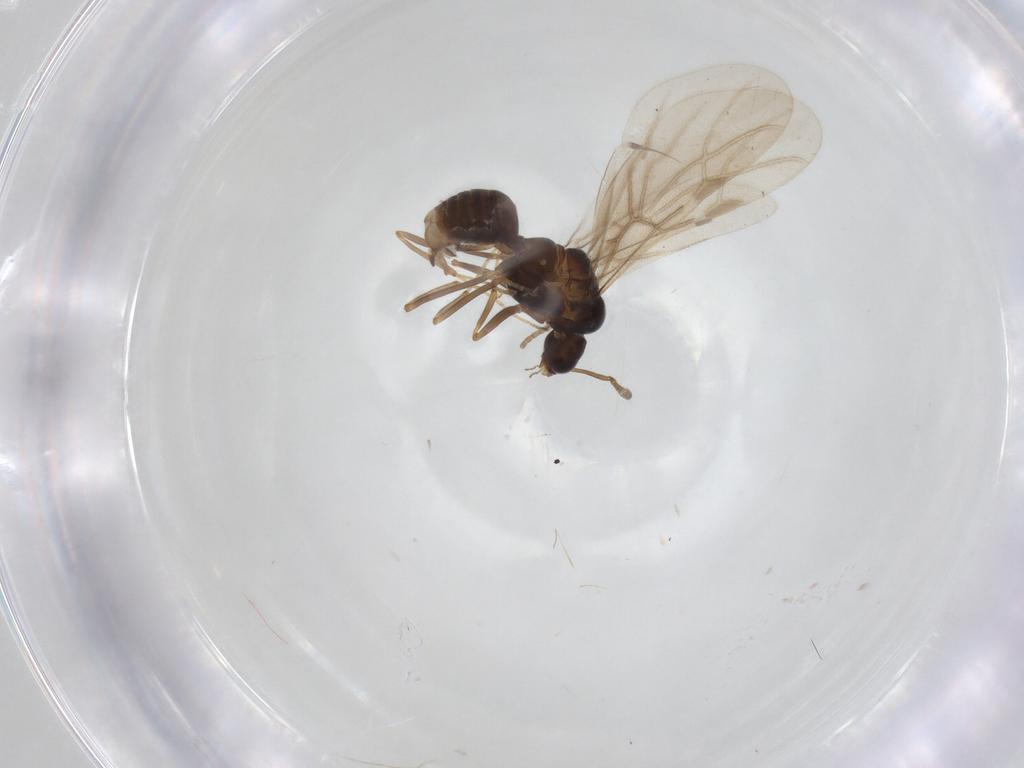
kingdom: Animalia
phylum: Arthropoda
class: Insecta
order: Hymenoptera
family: Formicidae
